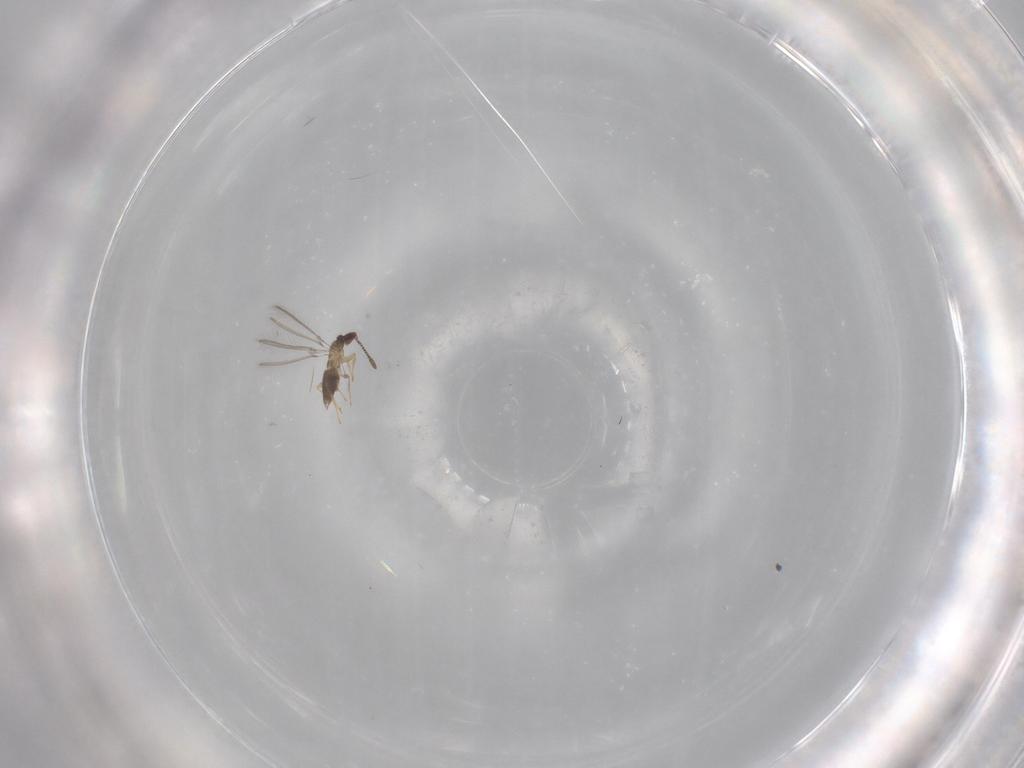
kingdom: Animalia
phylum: Arthropoda
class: Insecta
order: Hymenoptera
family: Mymaridae
